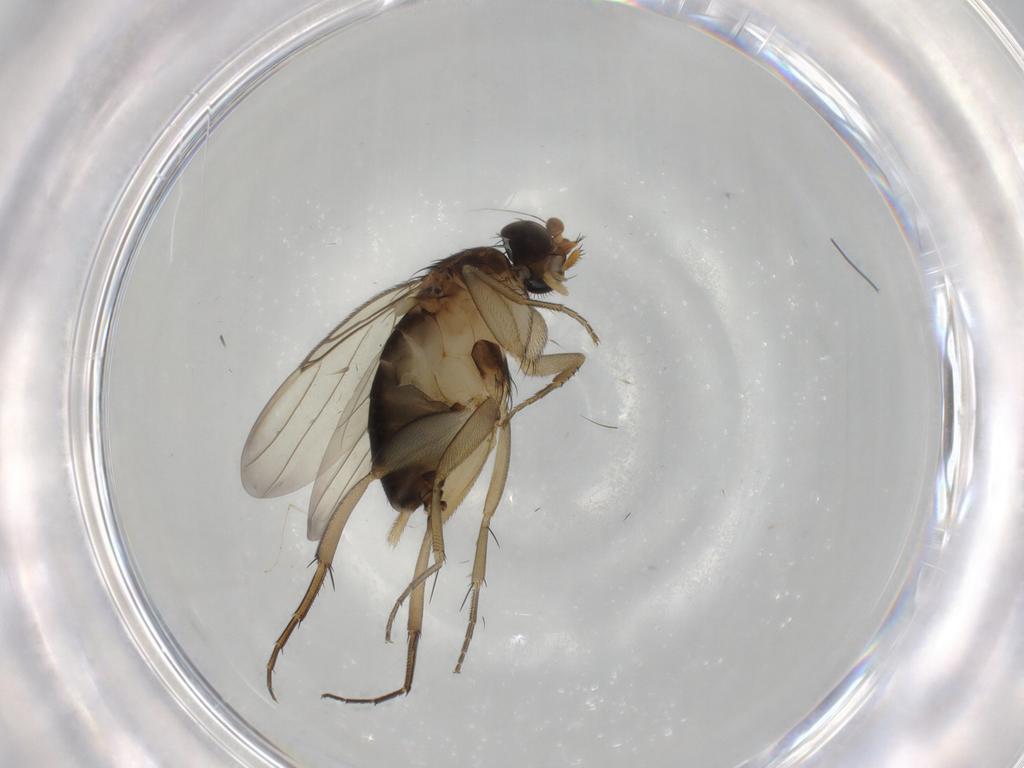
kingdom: Animalia
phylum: Arthropoda
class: Insecta
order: Diptera
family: Phoridae
